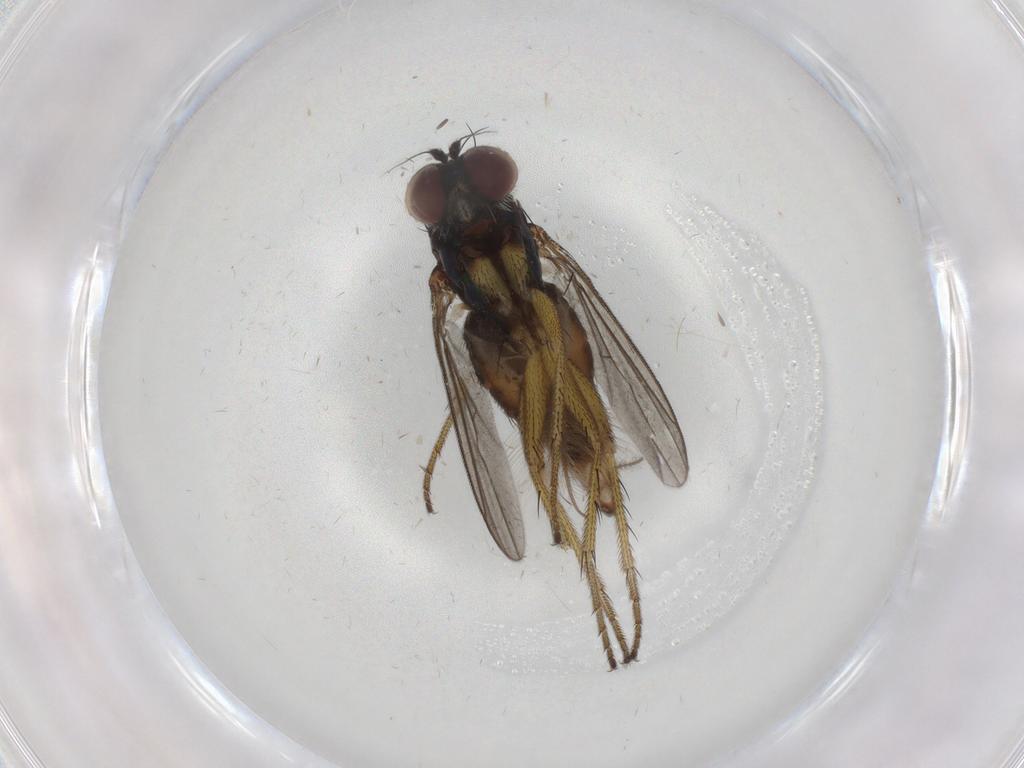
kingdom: Animalia
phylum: Arthropoda
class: Insecta
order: Diptera
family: Dolichopodidae
